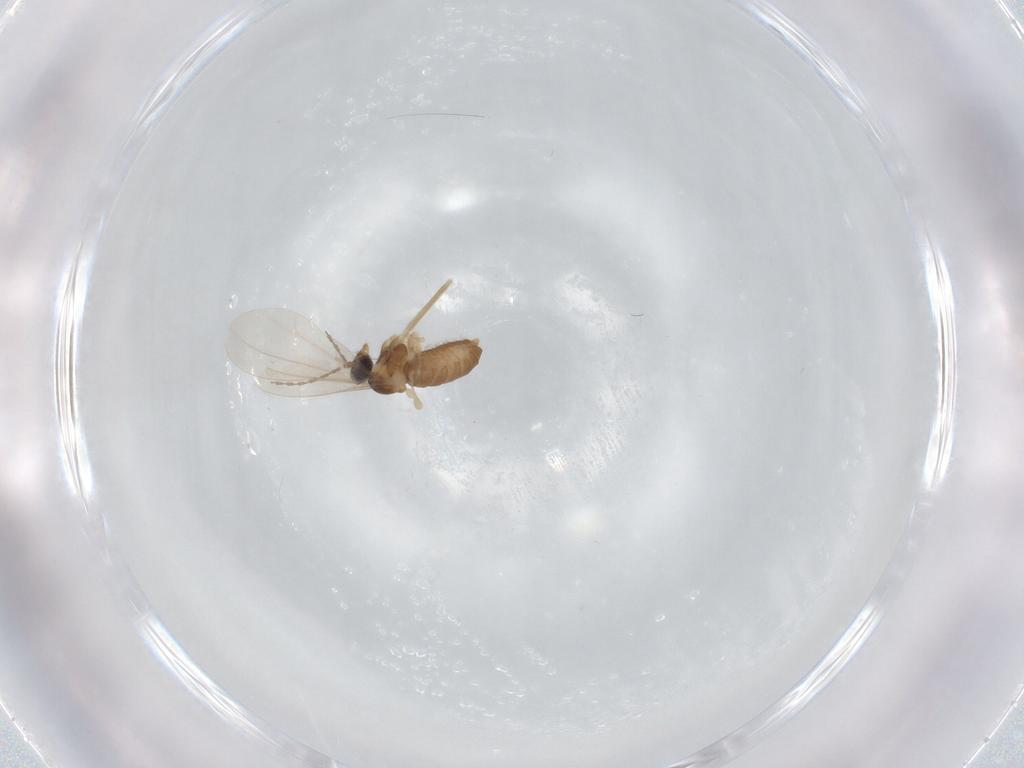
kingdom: Animalia
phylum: Arthropoda
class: Insecta
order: Diptera
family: Cecidomyiidae
